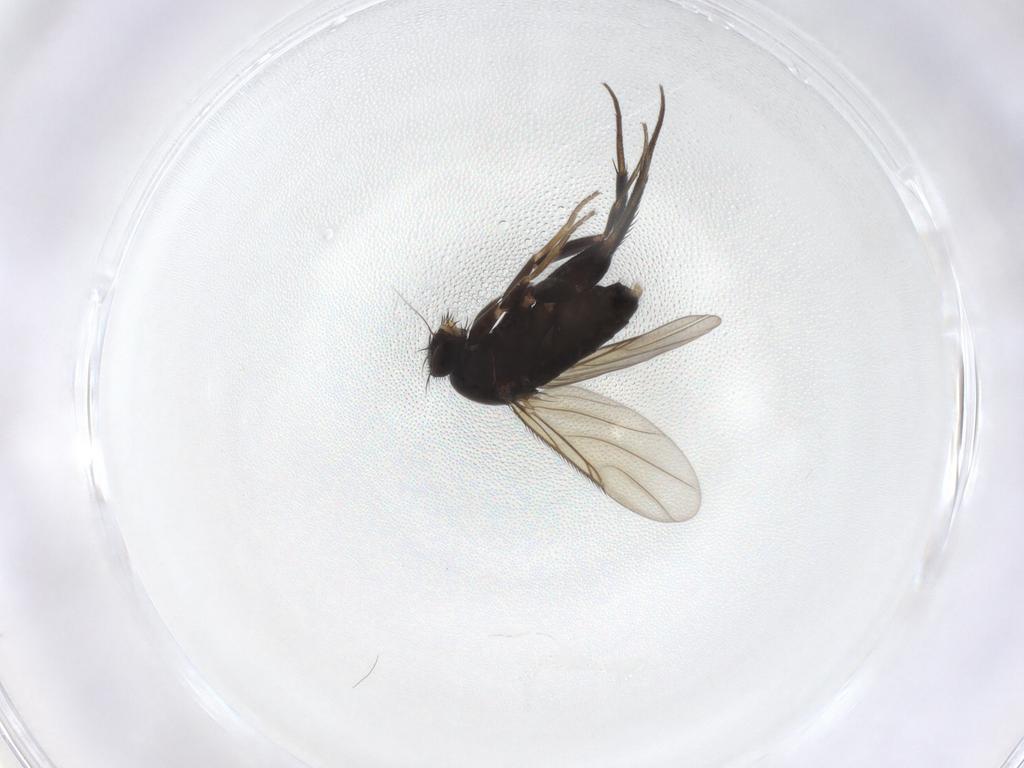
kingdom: Animalia
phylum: Arthropoda
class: Insecta
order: Diptera
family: Phoridae
